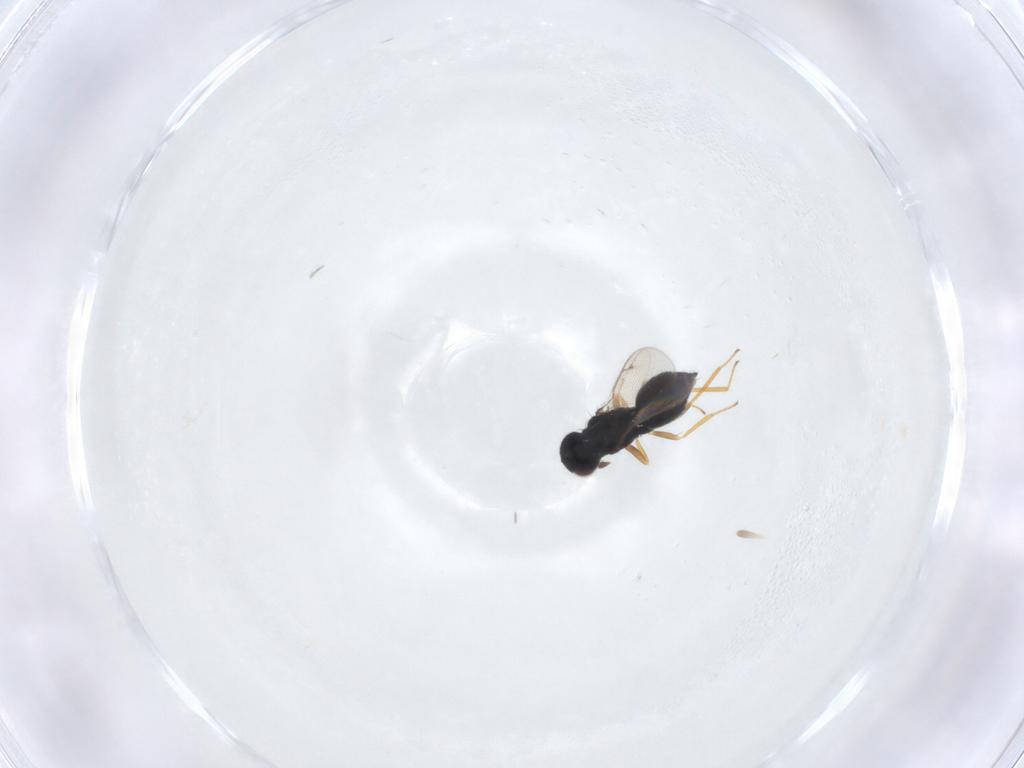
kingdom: Animalia
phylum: Arthropoda
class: Insecta
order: Hymenoptera
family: Eulophidae
